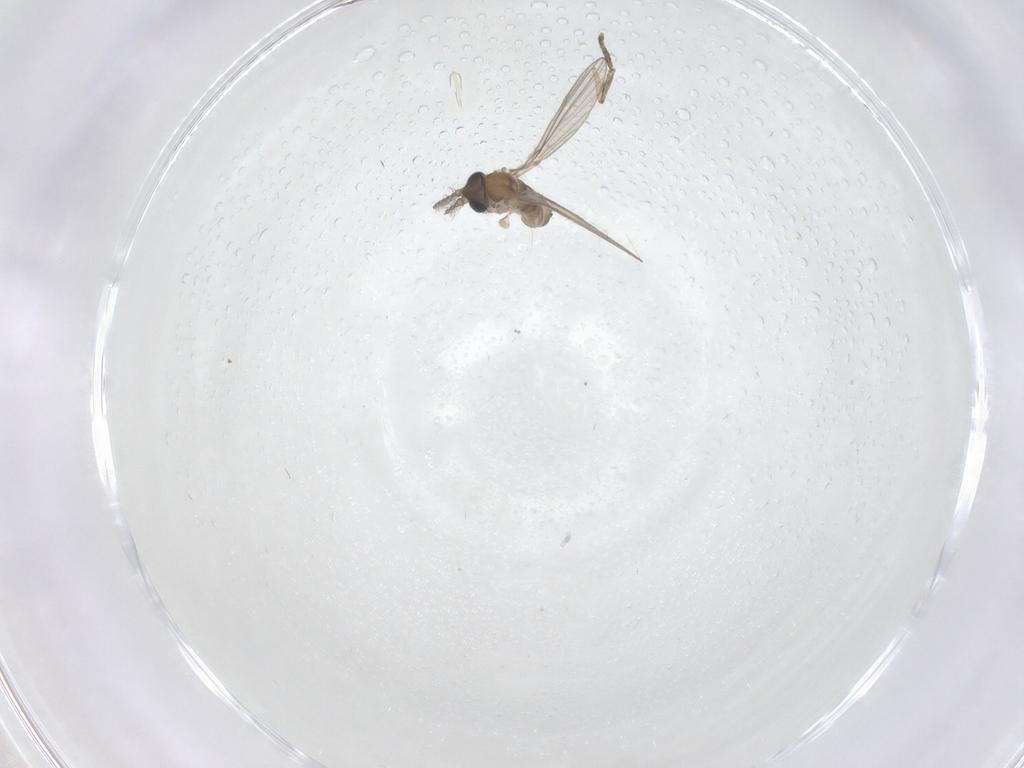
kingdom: Animalia
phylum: Arthropoda
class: Insecta
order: Diptera
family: Psychodidae
